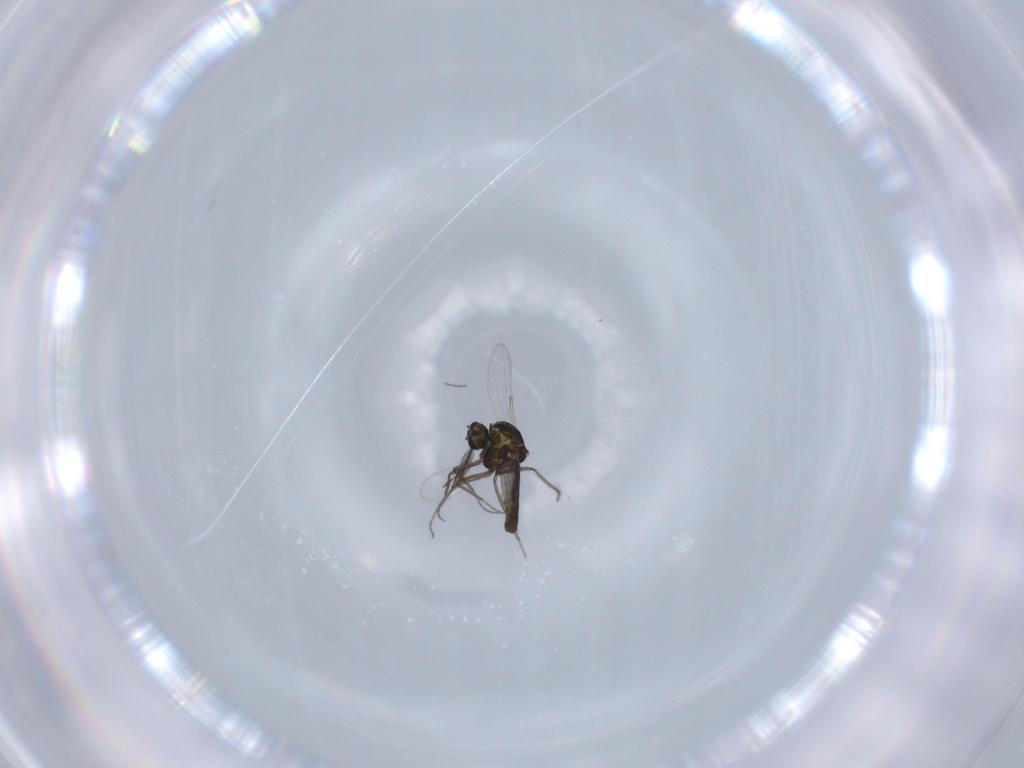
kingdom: Animalia
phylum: Arthropoda
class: Insecta
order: Diptera
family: Ceratopogonidae
